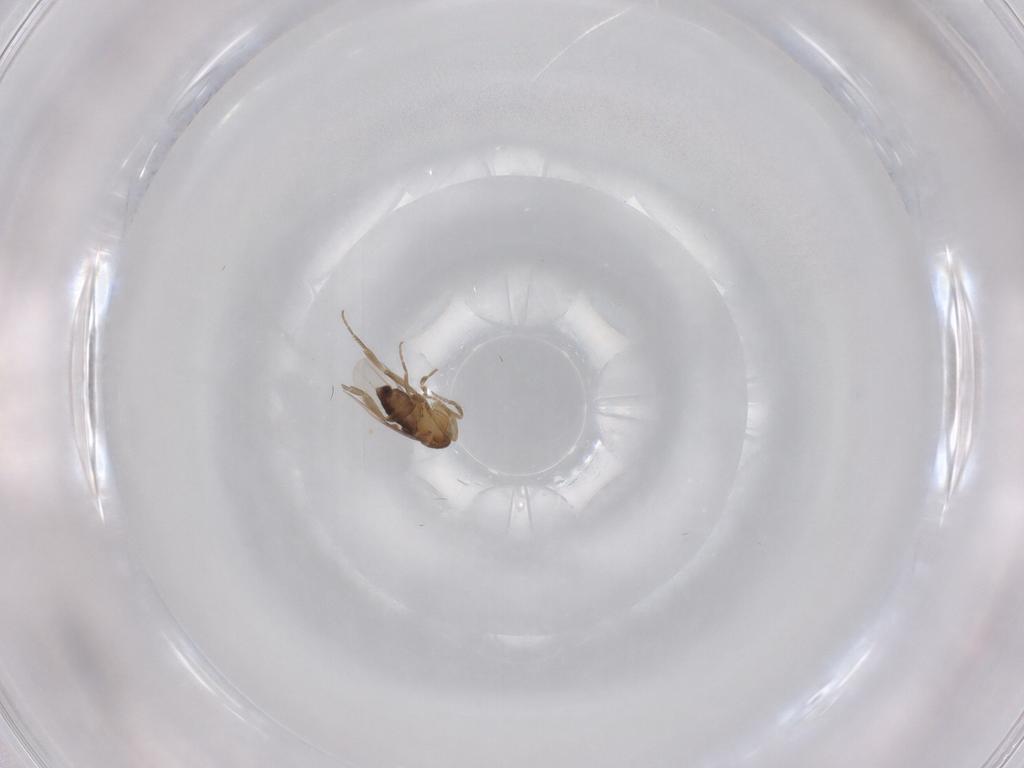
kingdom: Animalia
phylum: Arthropoda
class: Insecta
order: Diptera
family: Phoridae
